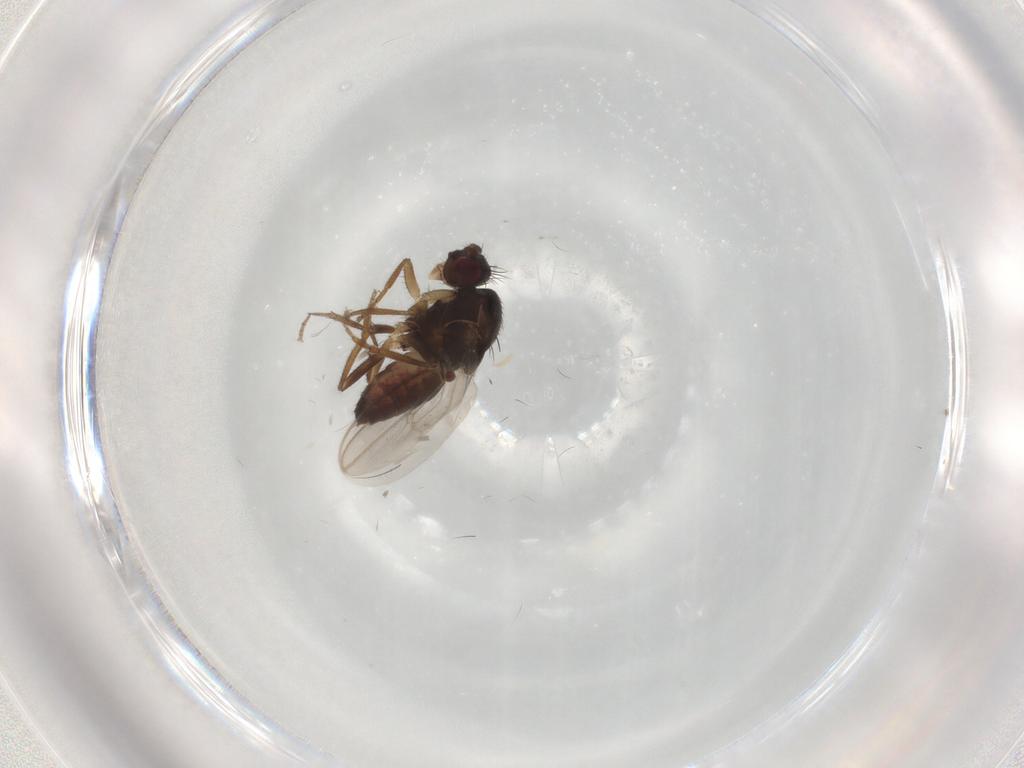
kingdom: Animalia
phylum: Arthropoda
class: Insecta
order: Diptera
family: Sphaeroceridae
